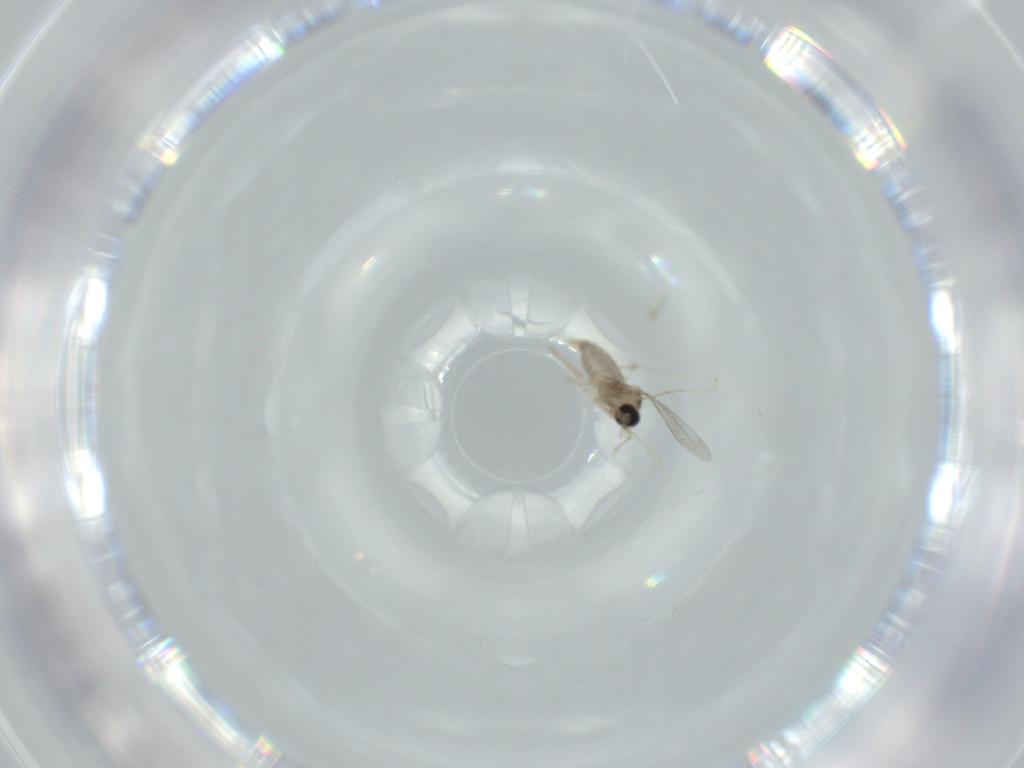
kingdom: Animalia
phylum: Arthropoda
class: Insecta
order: Diptera
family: Cecidomyiidae
